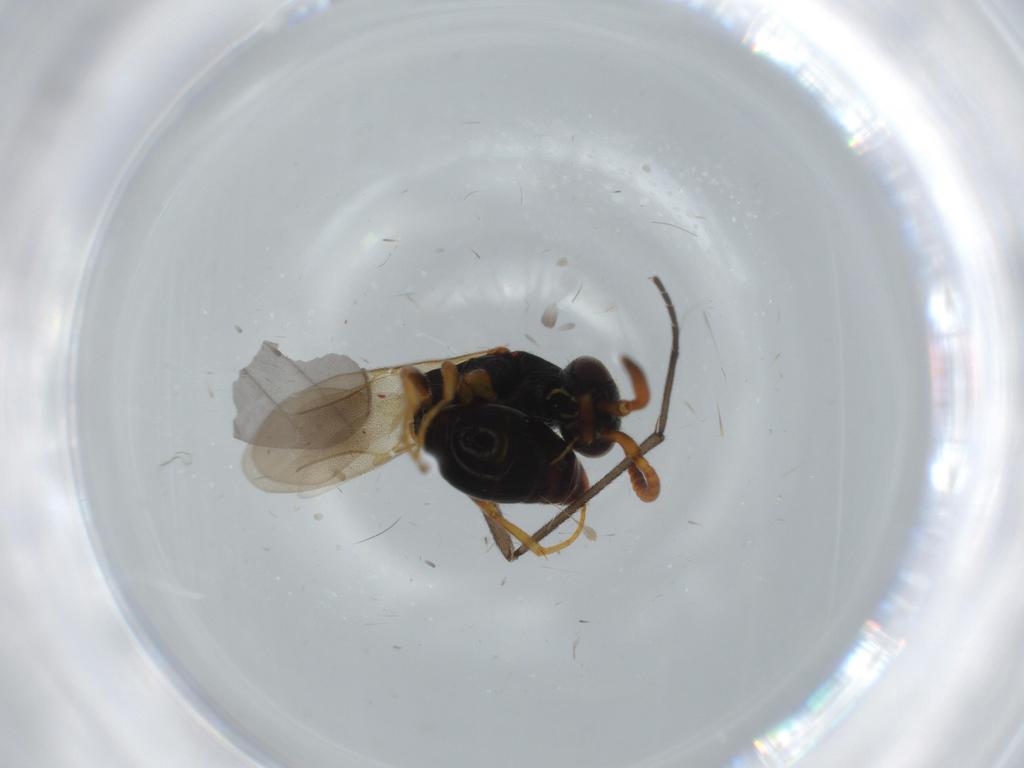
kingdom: Animalia
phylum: Arthropoda
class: Insecta
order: Hymenoptera
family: Bethylidae
